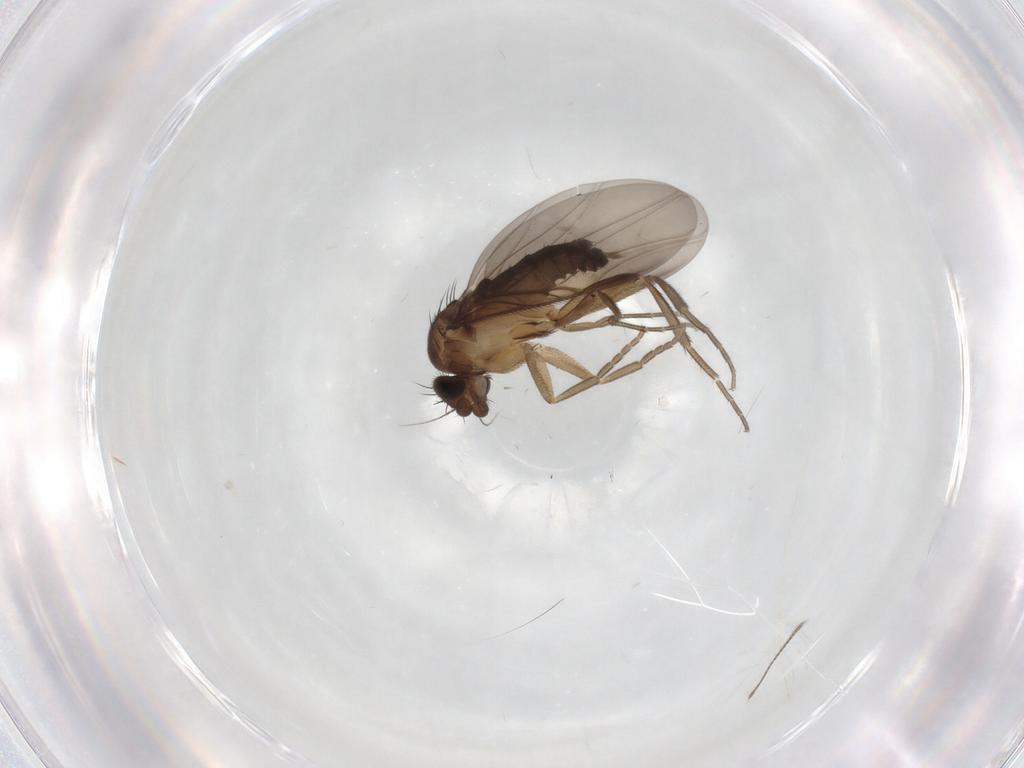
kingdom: Animalia
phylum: Arthropoda
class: Insecta
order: Diptera
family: Phoridae
